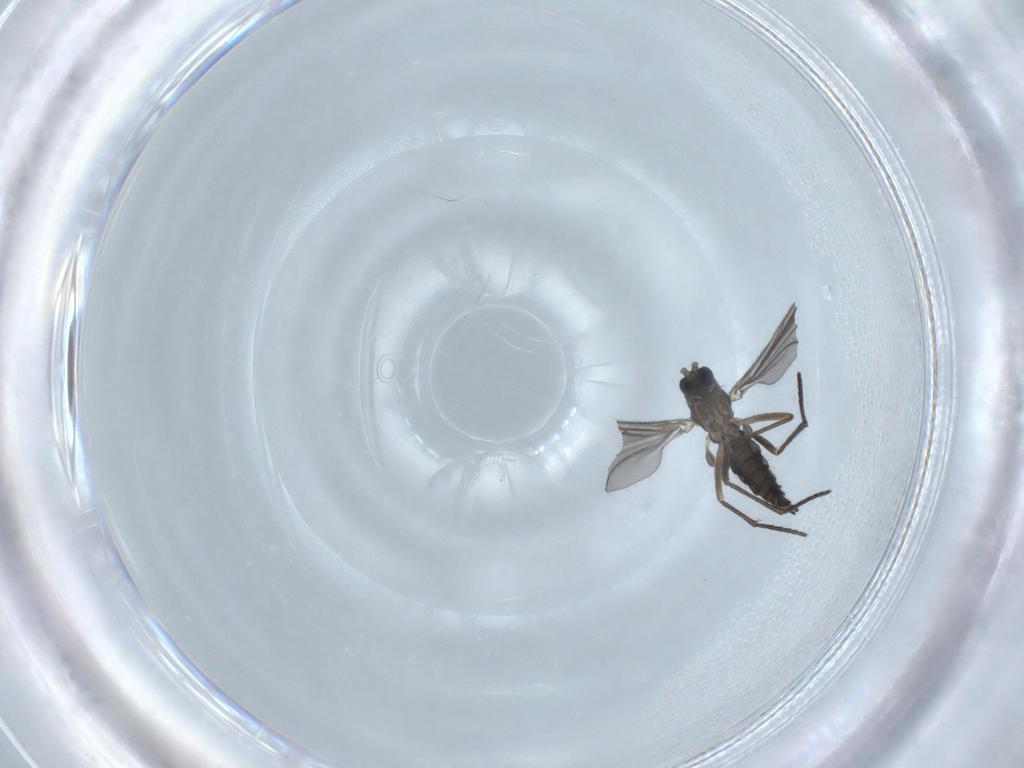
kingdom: Animalia
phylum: Arthropoda
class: Insecta
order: Diptera
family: Sciaridae
